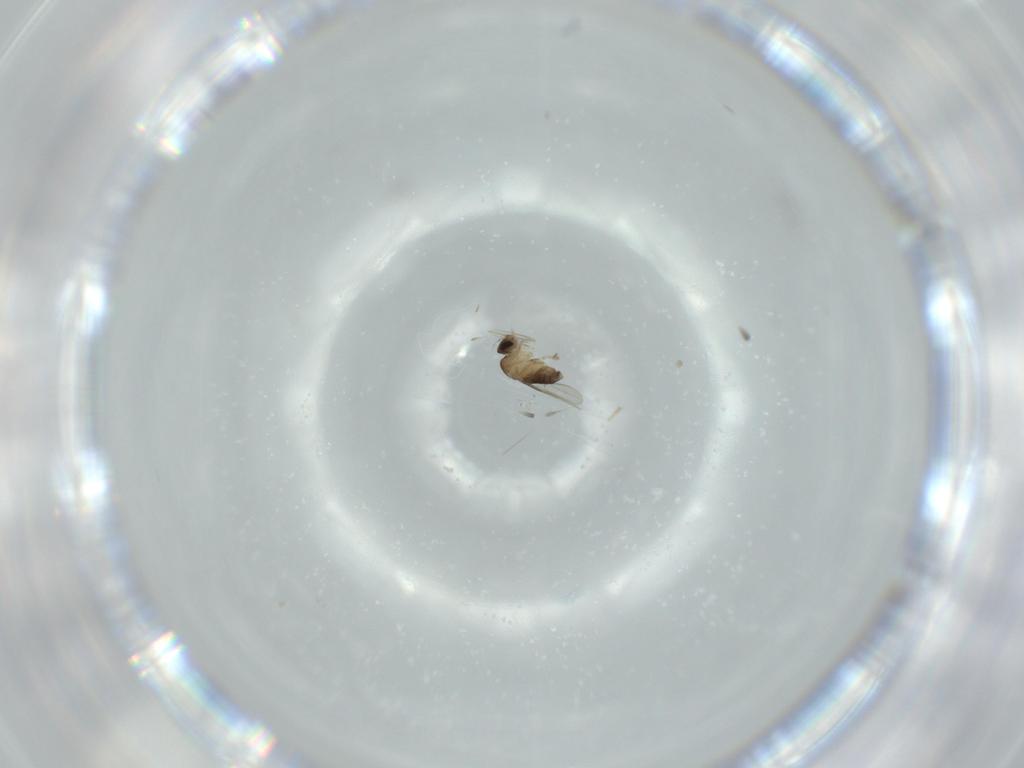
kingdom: Animalia
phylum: Arthropoda
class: Insecta
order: Diptera
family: Phoridae
